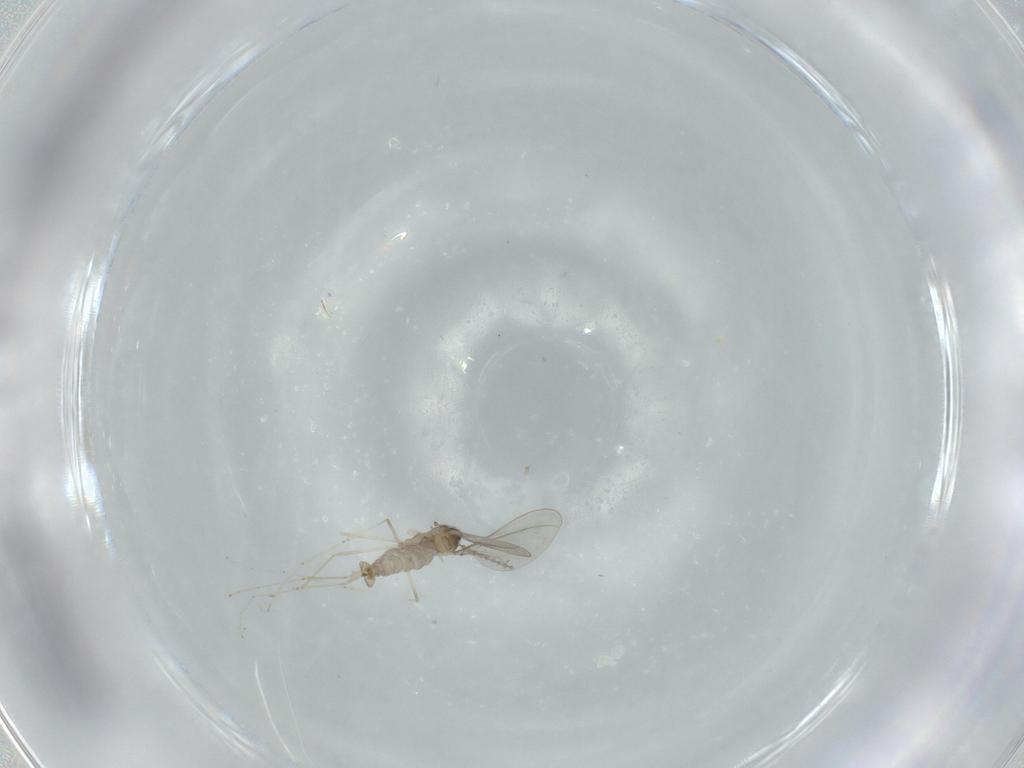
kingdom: Animalia
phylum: Arthropoda
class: Insecta
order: Diptera
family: Cecidomyiidae
